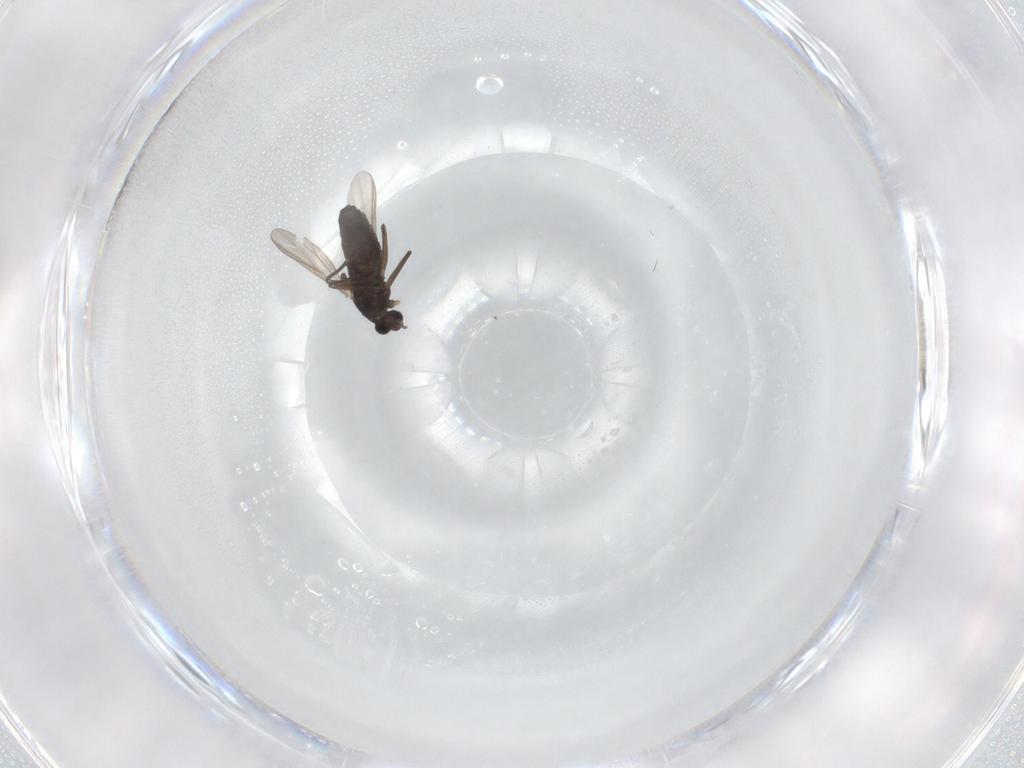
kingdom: Animalia
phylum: Arthropoda
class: Insecta
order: Diptera
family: Chironomidae
